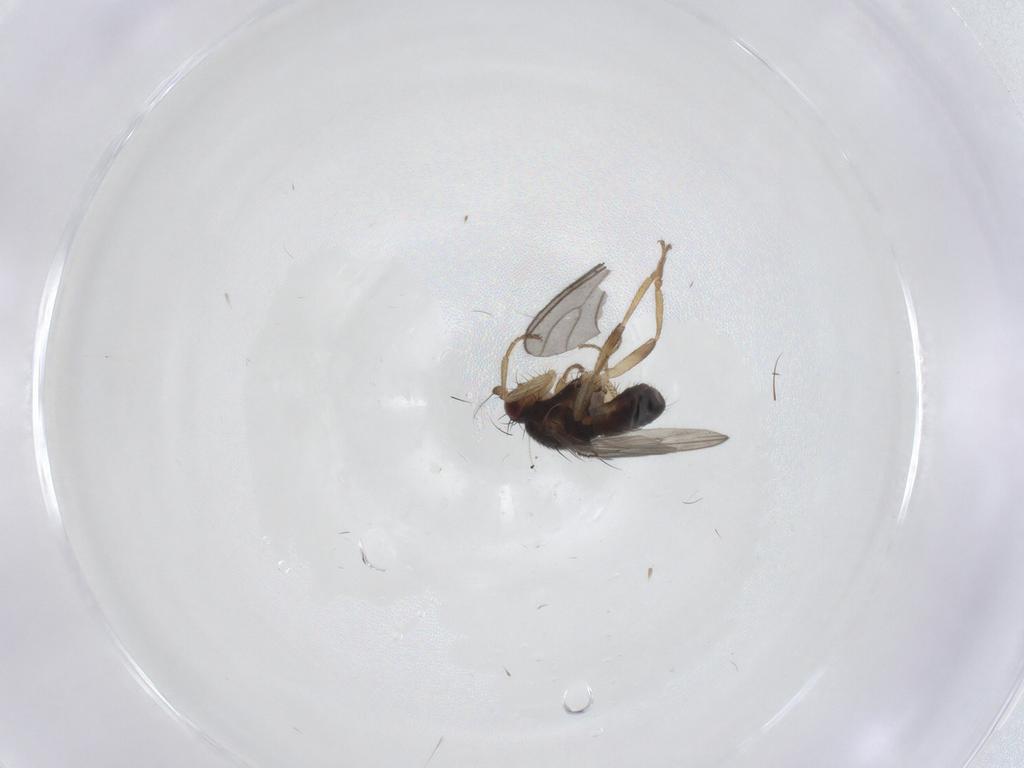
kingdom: Animalia
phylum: Arthropoda
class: Insecta
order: Diptera
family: Sphaeroceridae
